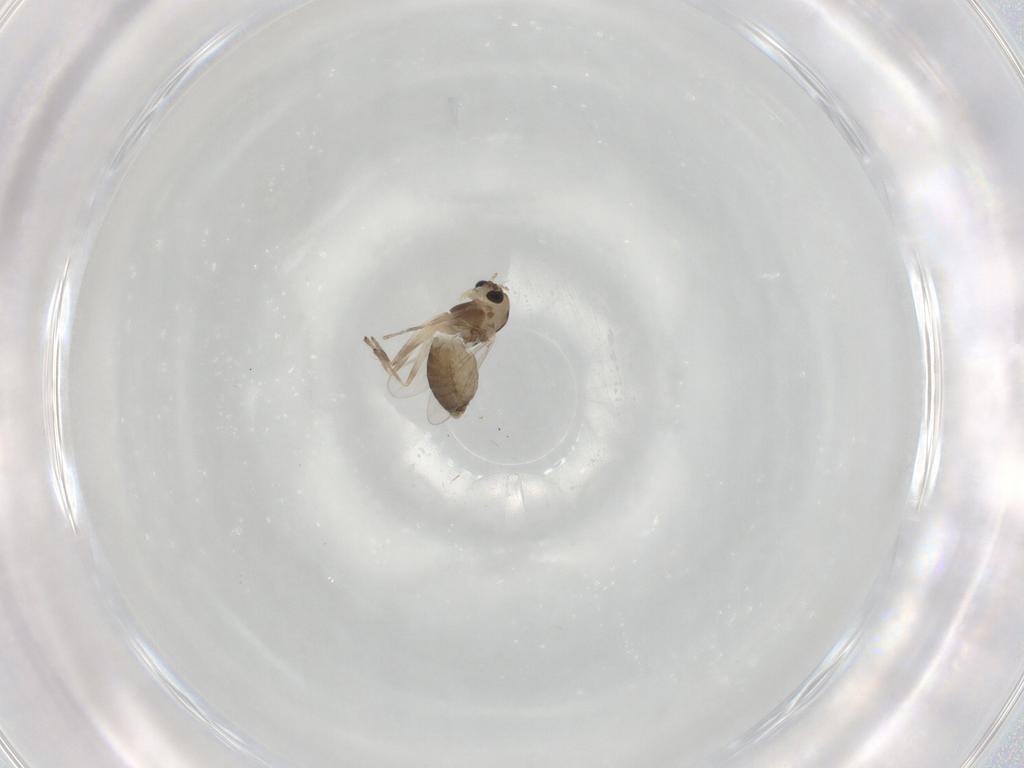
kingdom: Animalia
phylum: Arthropoda
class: Insecta
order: Diptera
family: Chironomidae
